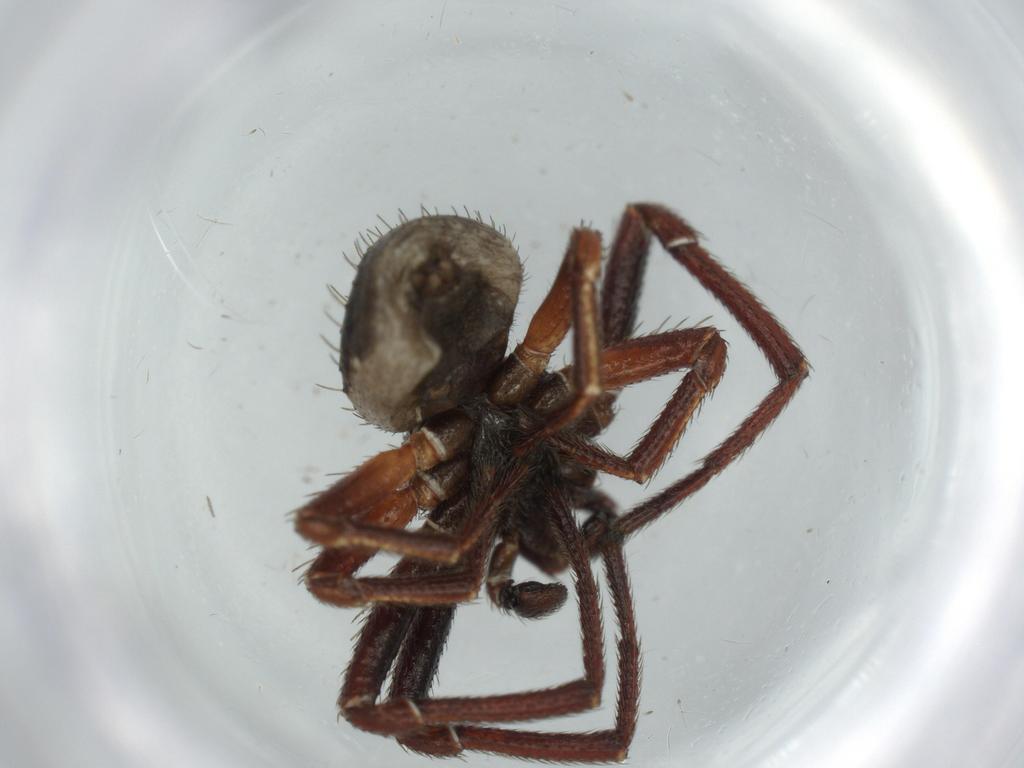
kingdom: Animalia
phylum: Arthropoda
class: Arachnida
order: Araneae
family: Thomisidae
